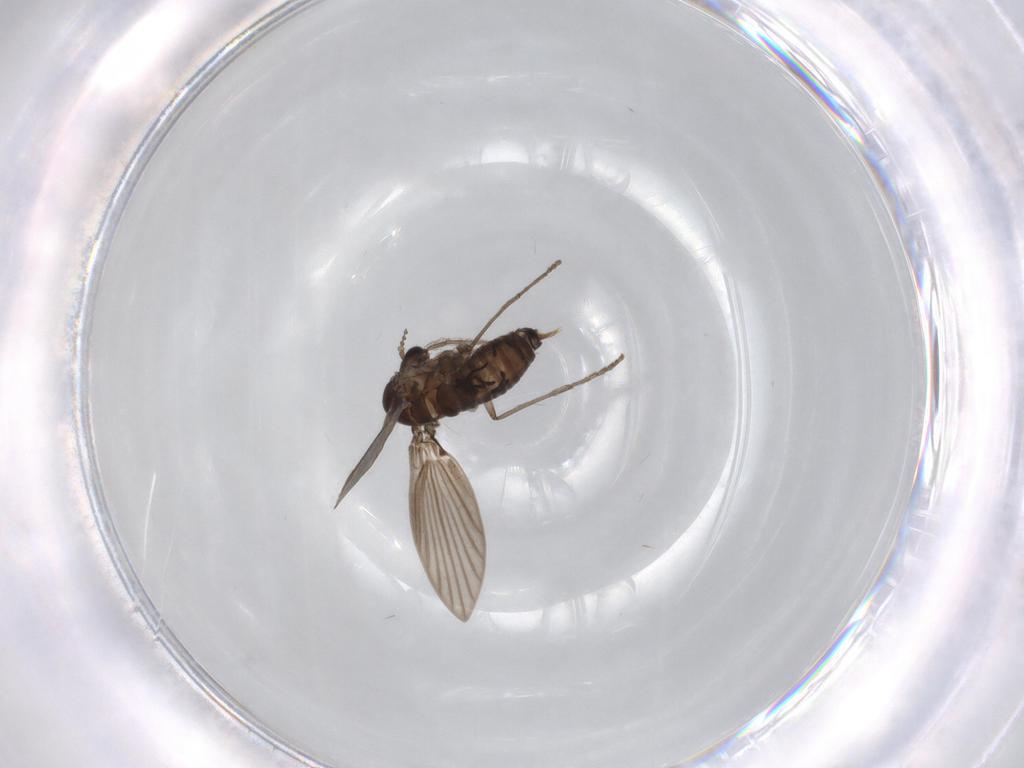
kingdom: Animalia
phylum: Arthropoda
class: Insecta
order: Diptera
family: Psychodidae
